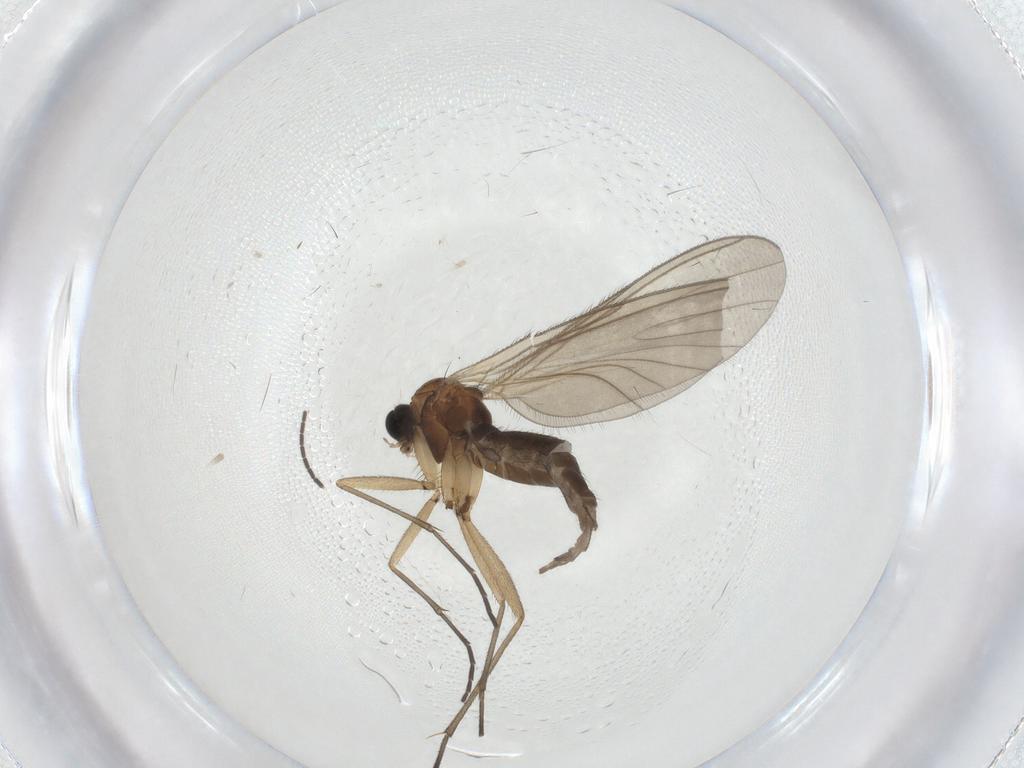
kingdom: Animalia
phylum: Arthropoda
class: Insecta
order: Diptera
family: Sciaridae
